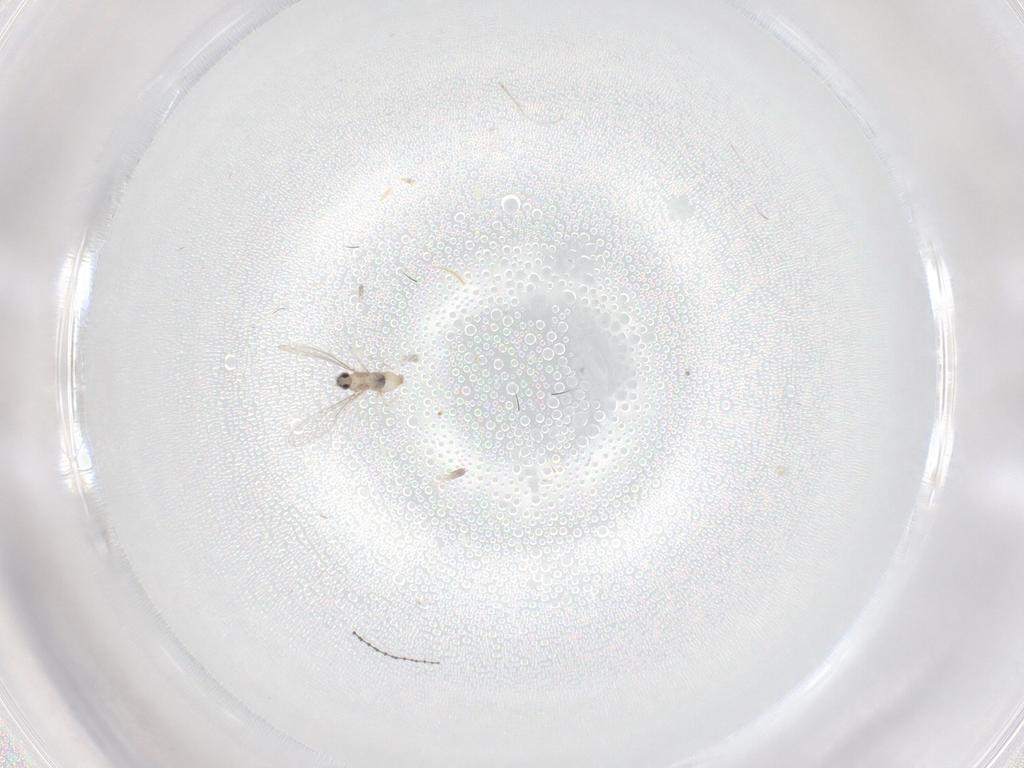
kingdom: Animalia
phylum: Arthropoda
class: Insecta
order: Diptera
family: Cecidomyiidae
